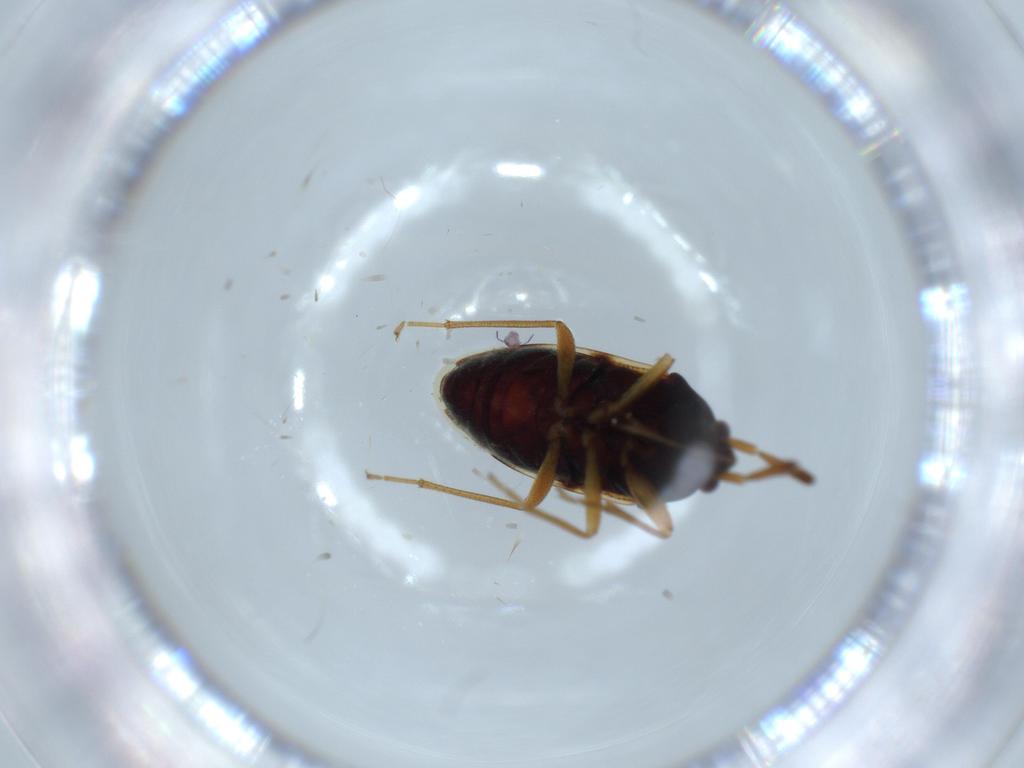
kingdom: Animalia
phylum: Arthropoda
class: Insecta
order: Hemiptera
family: Rhyparochromidae
